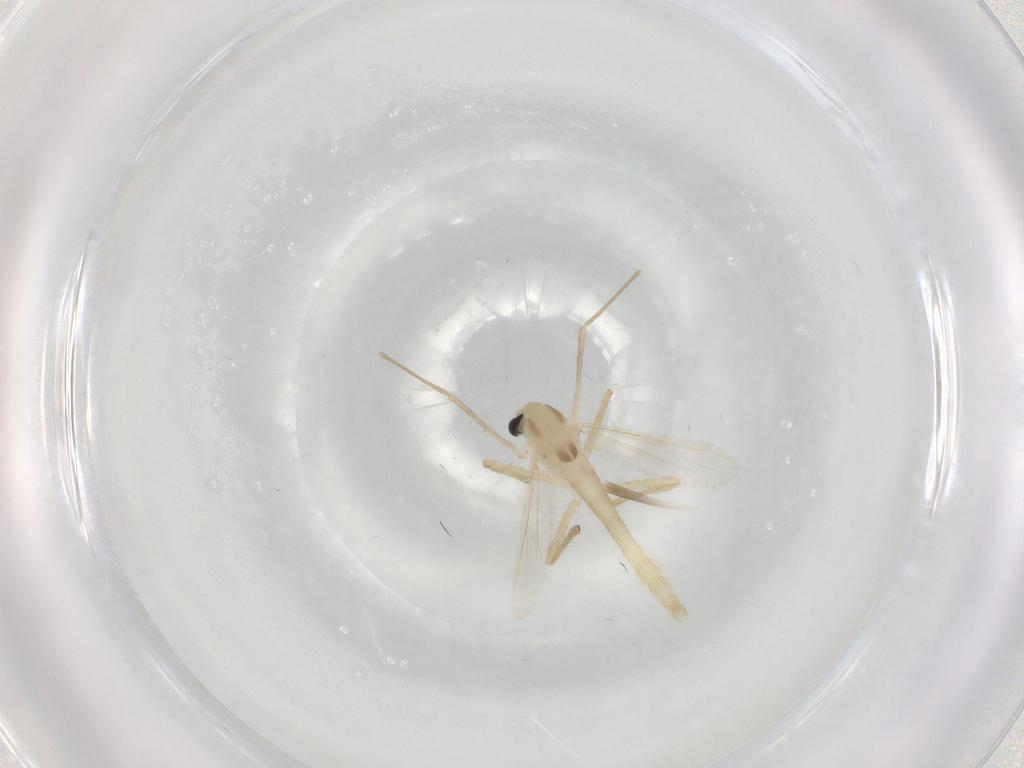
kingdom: Animalia
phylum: Arthropoda
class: Insecta
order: Diptera
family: Chironomidae
